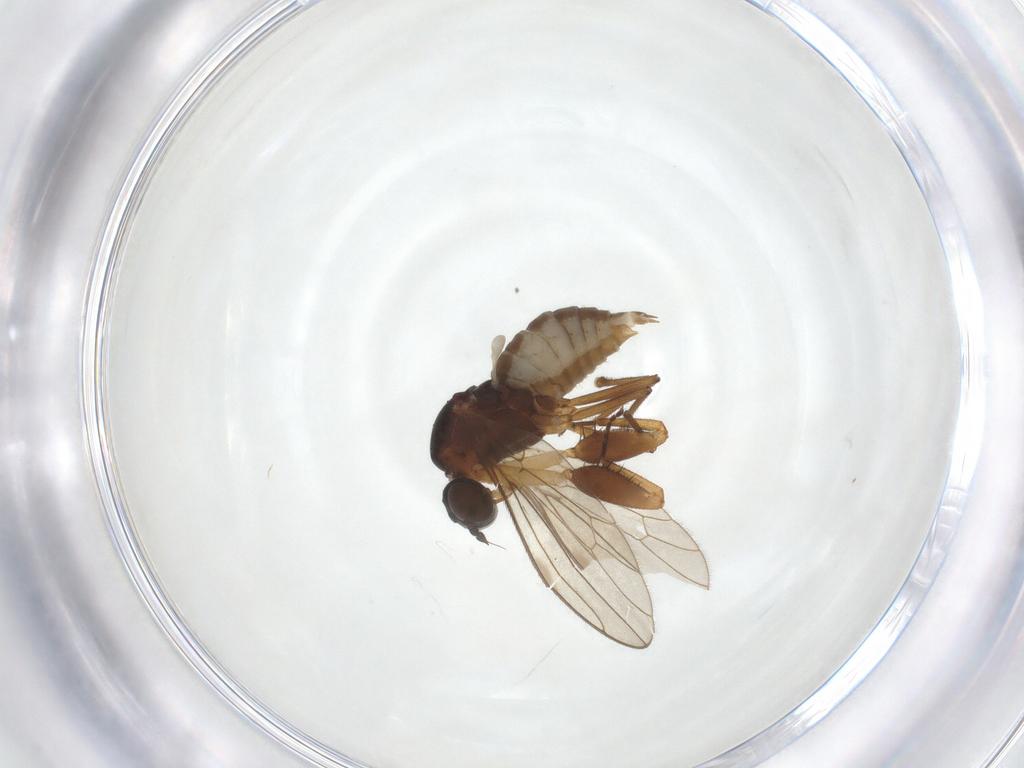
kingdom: Animalia
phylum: Arthropoda
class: Insecta
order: Diptera
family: Empididae
